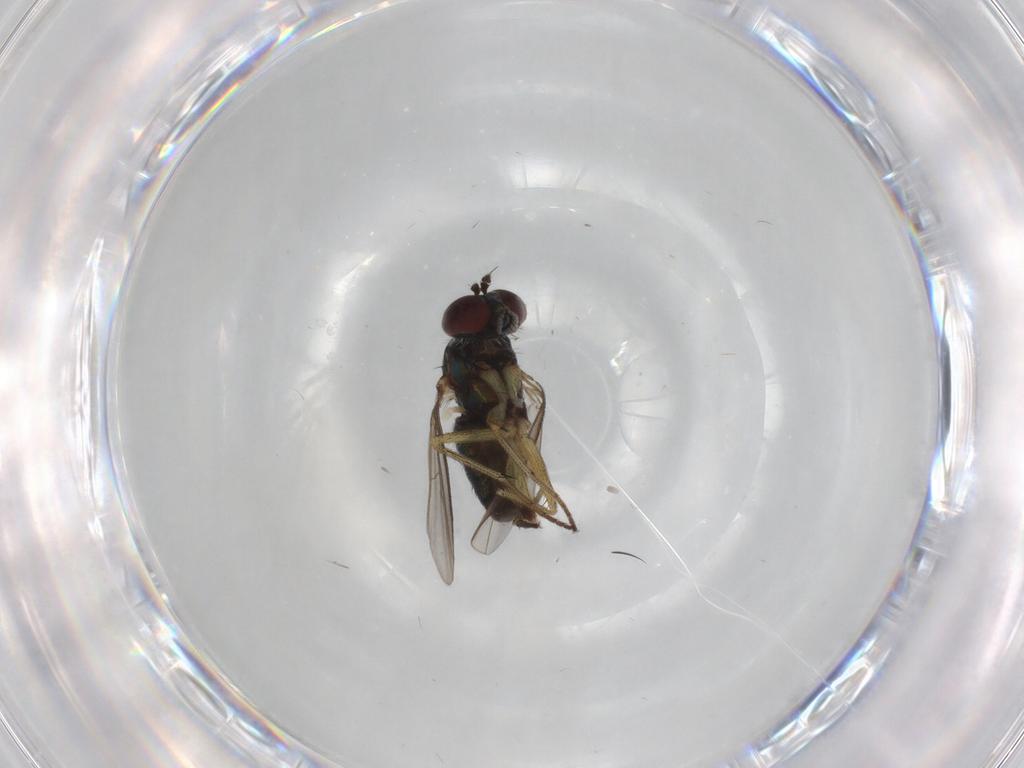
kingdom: Animalia
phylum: Arthropoda
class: Insecta
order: Diptera
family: Dolichopodidae
